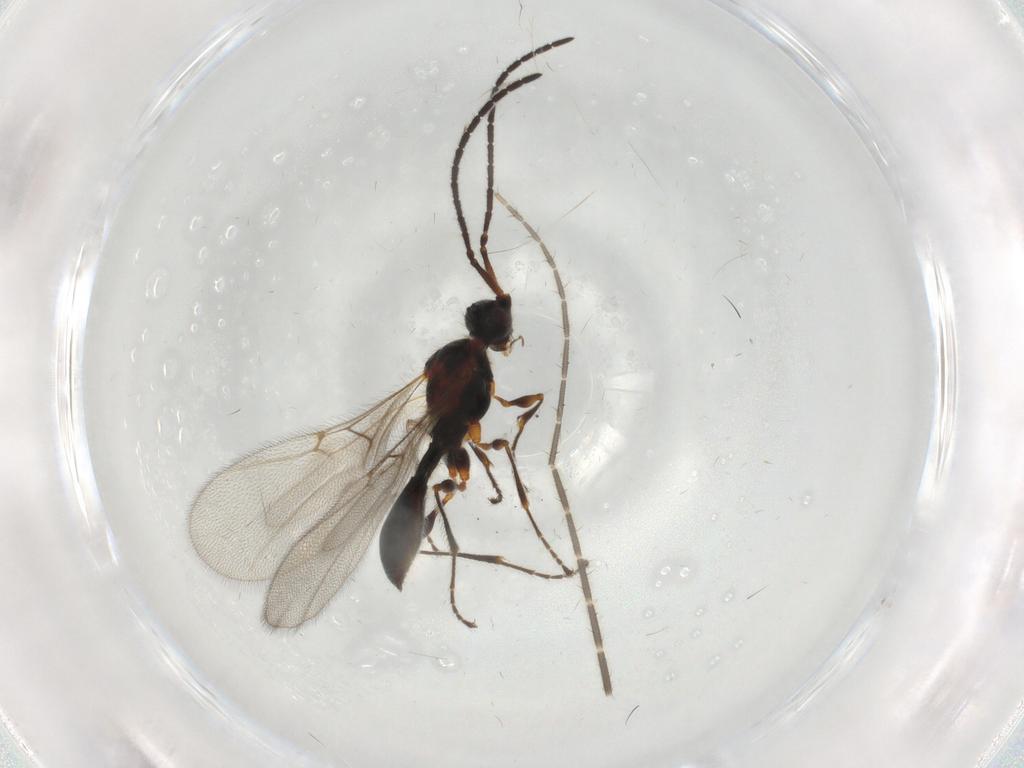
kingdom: Animalia
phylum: Arthropoda
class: Insecta
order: Hymenoptera
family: Diapriidae
